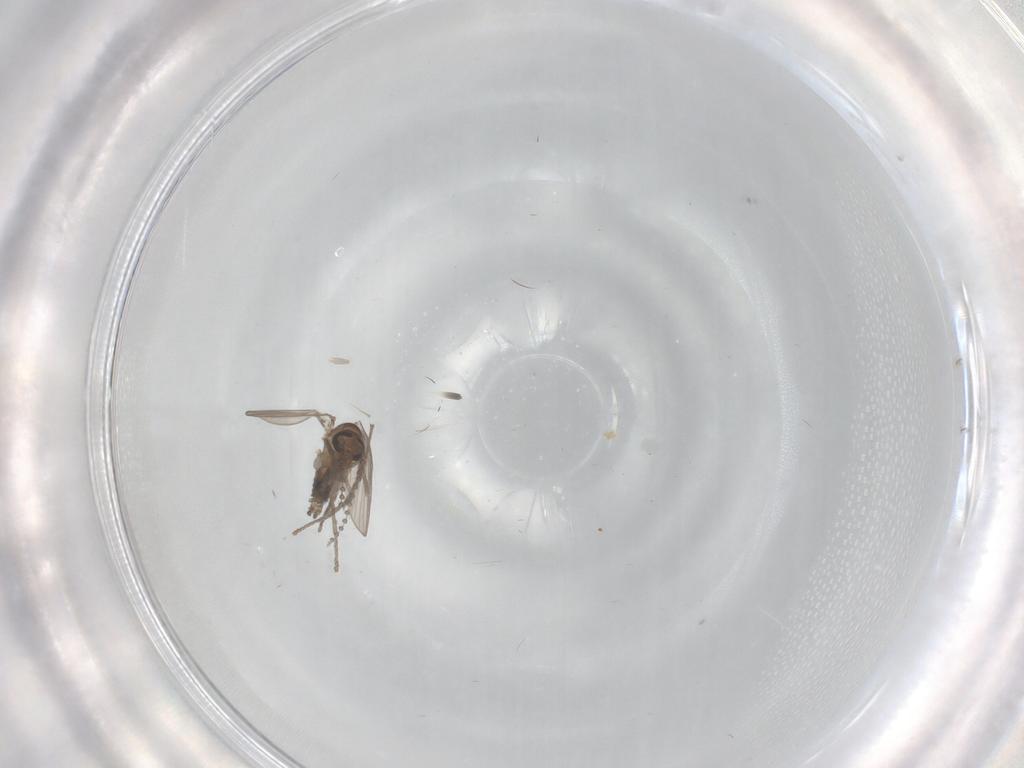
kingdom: Animalia
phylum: Arthropoda
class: Insecta
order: Diptera
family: Psychodidae
